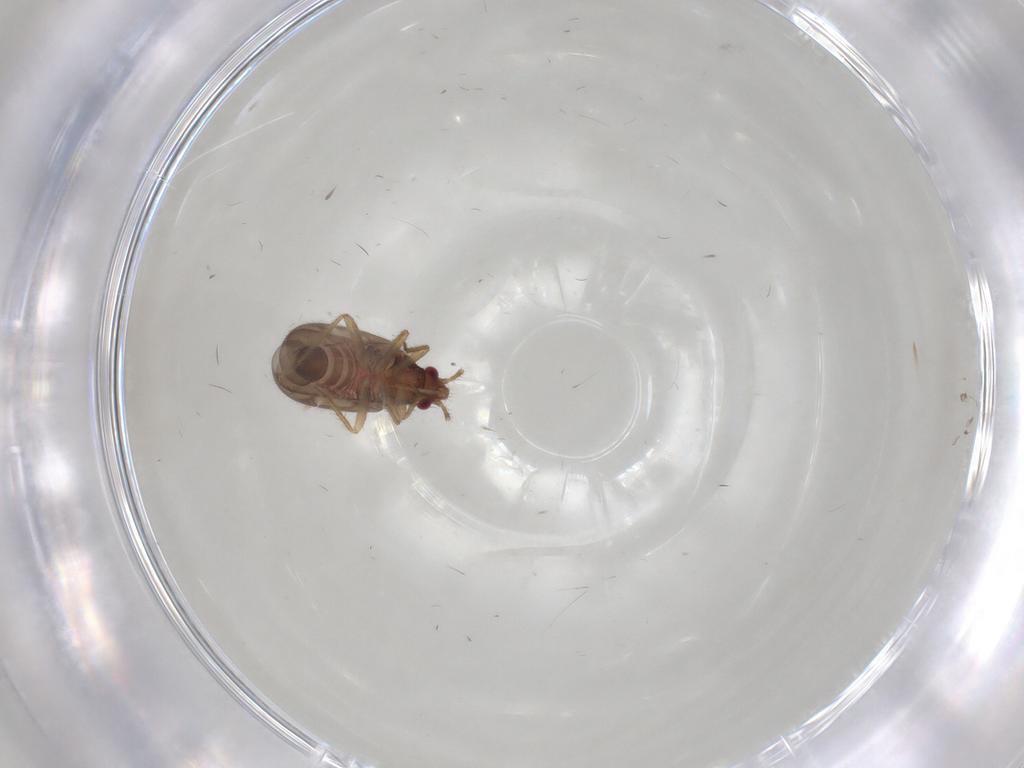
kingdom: Animalia
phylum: Arthropoda
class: Insecta
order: Hemiptera
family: Ceratocombidae
